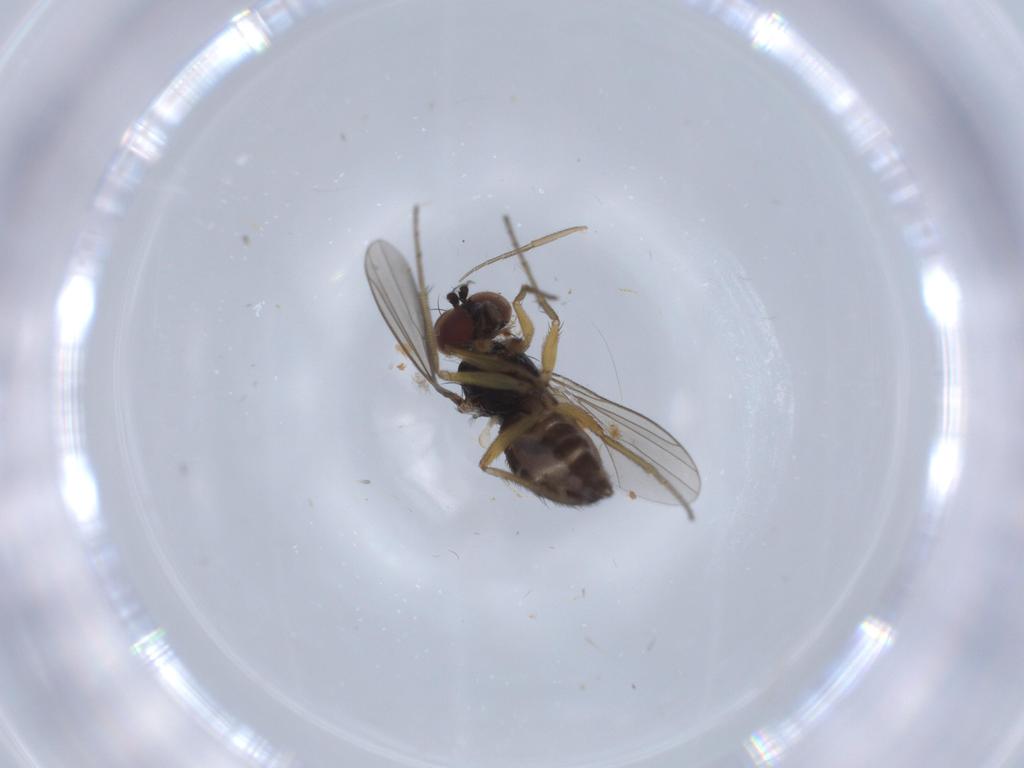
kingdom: Animalia
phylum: Arthropoda
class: Insecta
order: Diptera
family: Dolichopodidae
